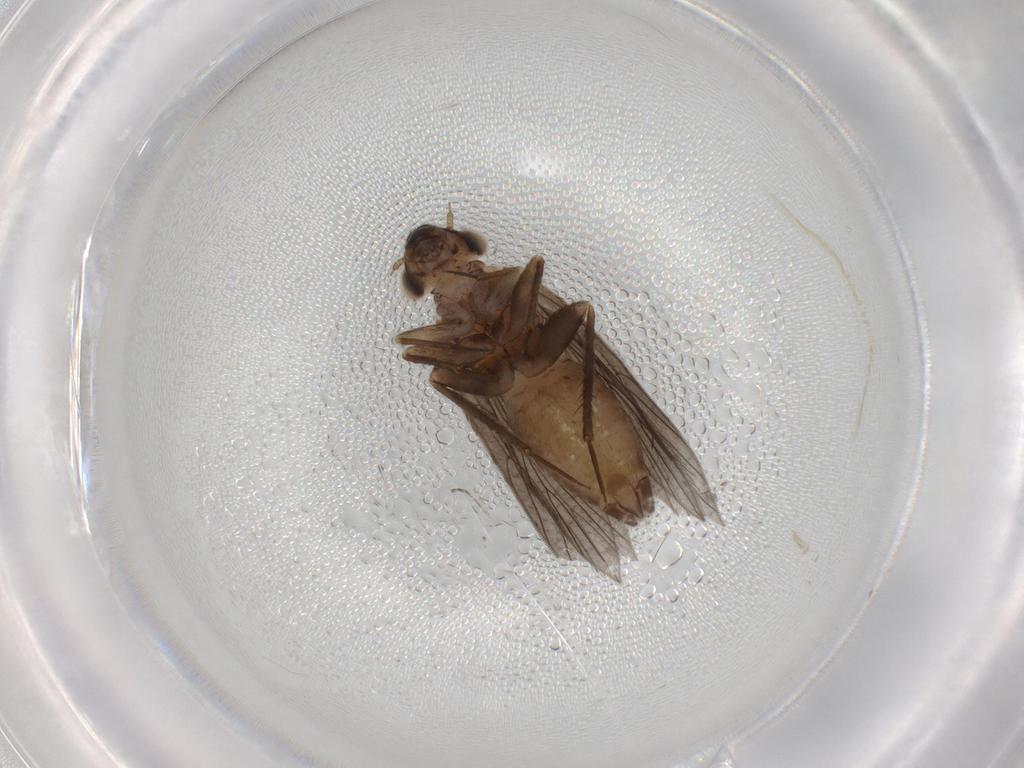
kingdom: Animalia
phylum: Arthropoda
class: Insecta
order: Psocodea
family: Lepidopsocidae
